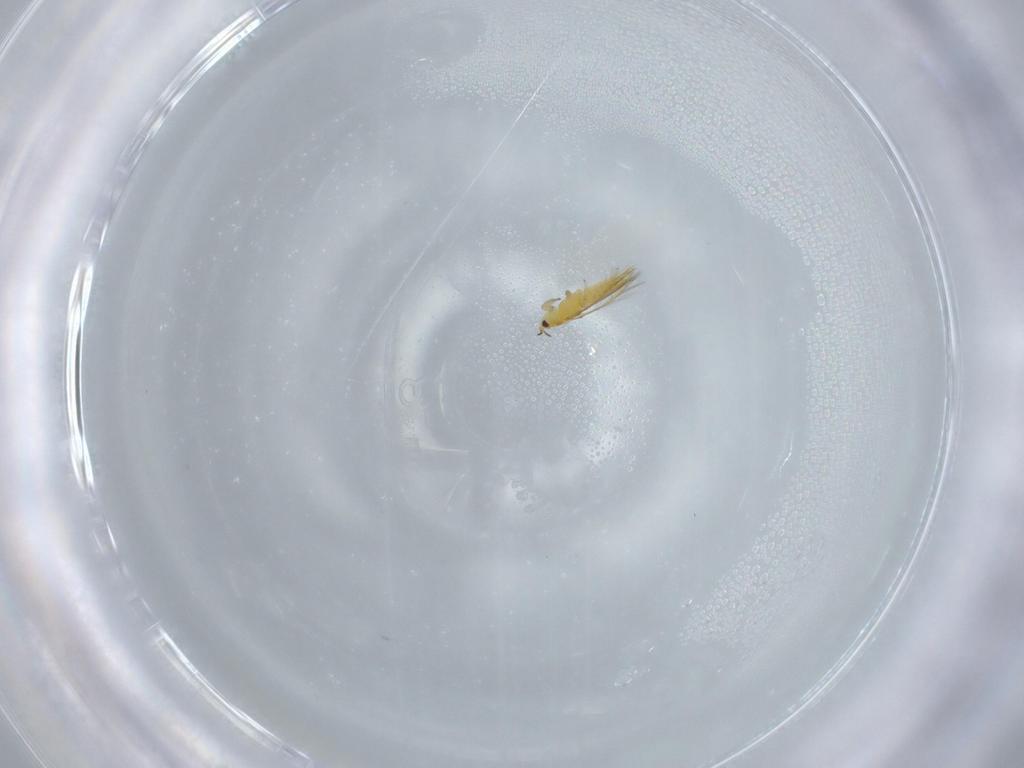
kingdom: Animalia
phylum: Arthropoda
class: Insecta
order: Thysanoptera
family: Thripidae
